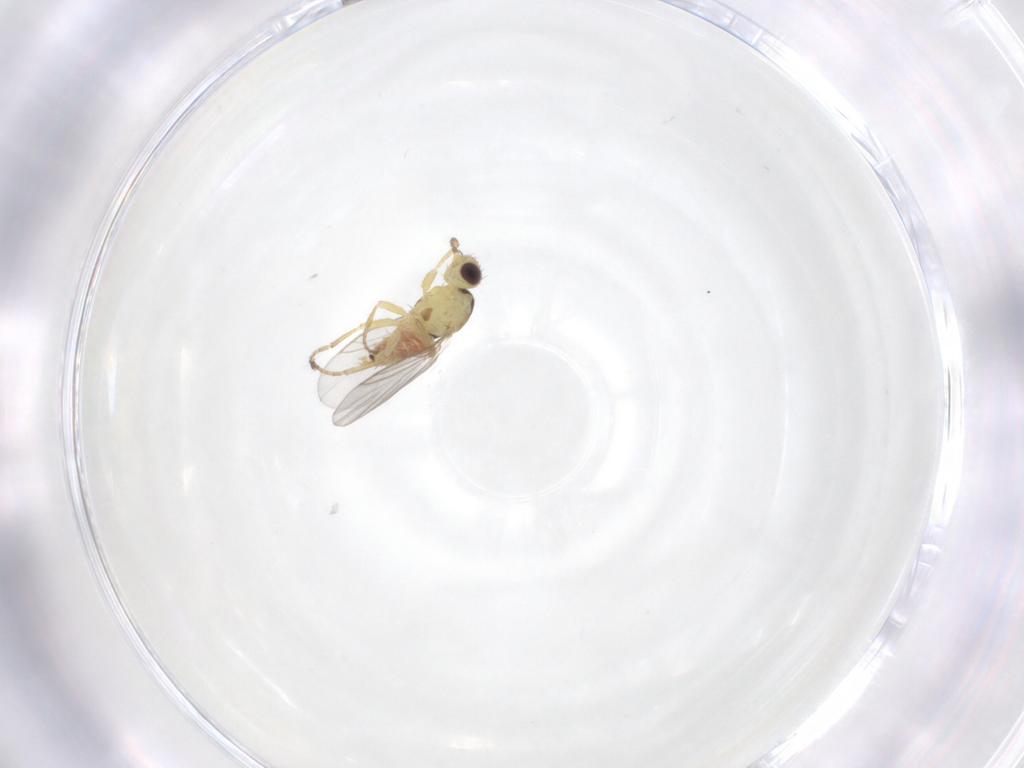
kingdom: Animalia
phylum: Arthropoda
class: Insecta
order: Diptera
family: Agromyzidae
